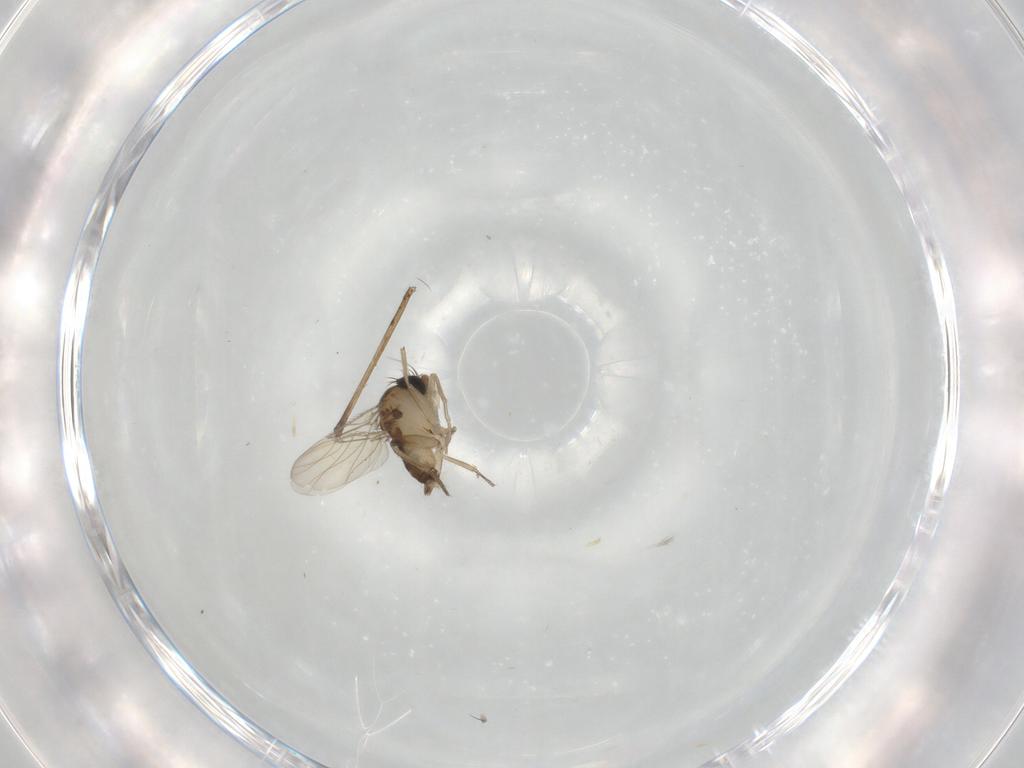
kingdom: Animalia
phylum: Arthropoda
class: Insecta
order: Diptera
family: Phoridae
